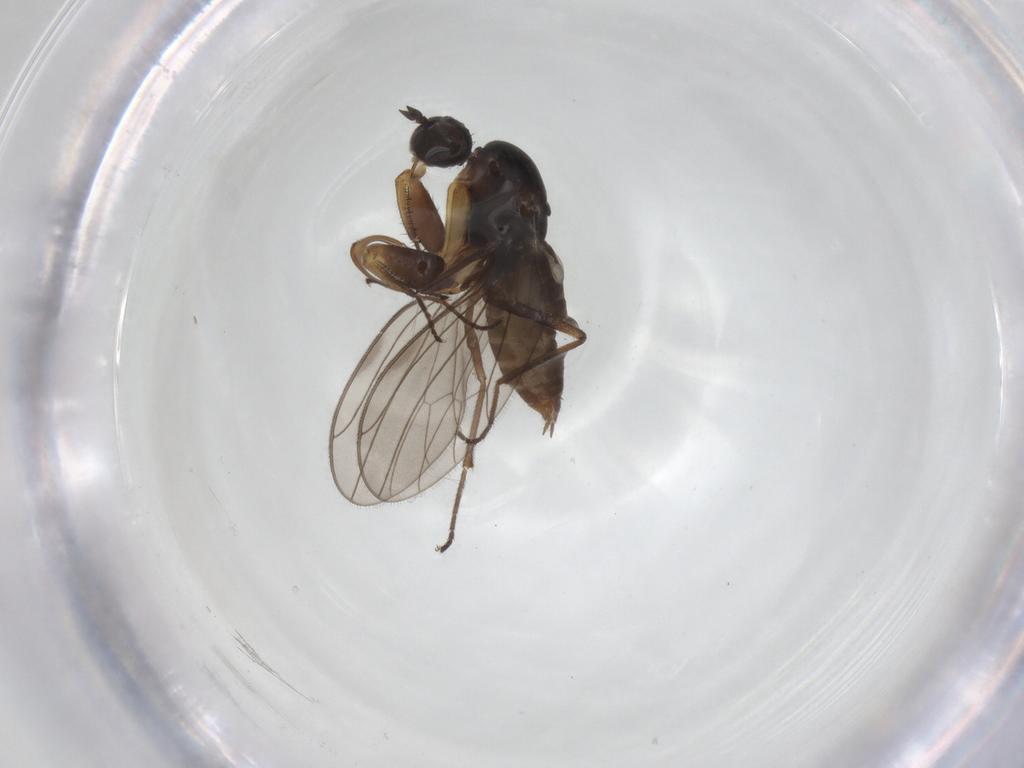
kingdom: Animalia
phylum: Arthropoda
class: Insecta
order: Diptera
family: Empididae
